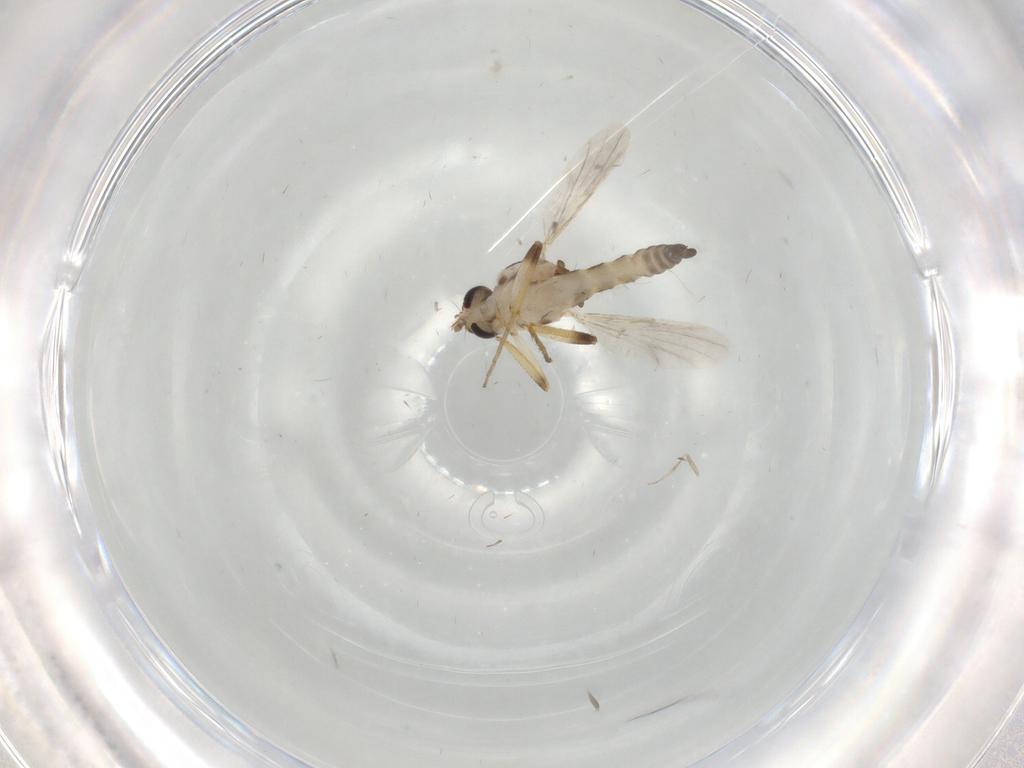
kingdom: Animalia
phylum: Arthropoda
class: Insecta
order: Diptera
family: Ceratopogonidae
